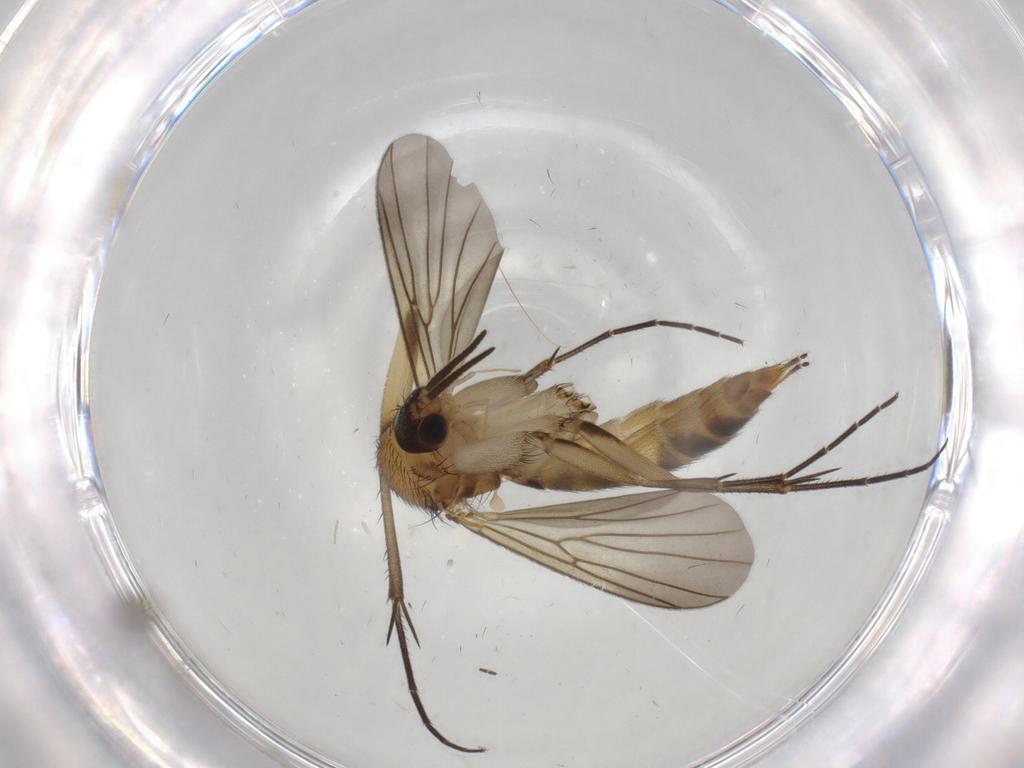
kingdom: Animalia
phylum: Arthropoda
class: Insecta
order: Diptera
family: Mycetophilidae
